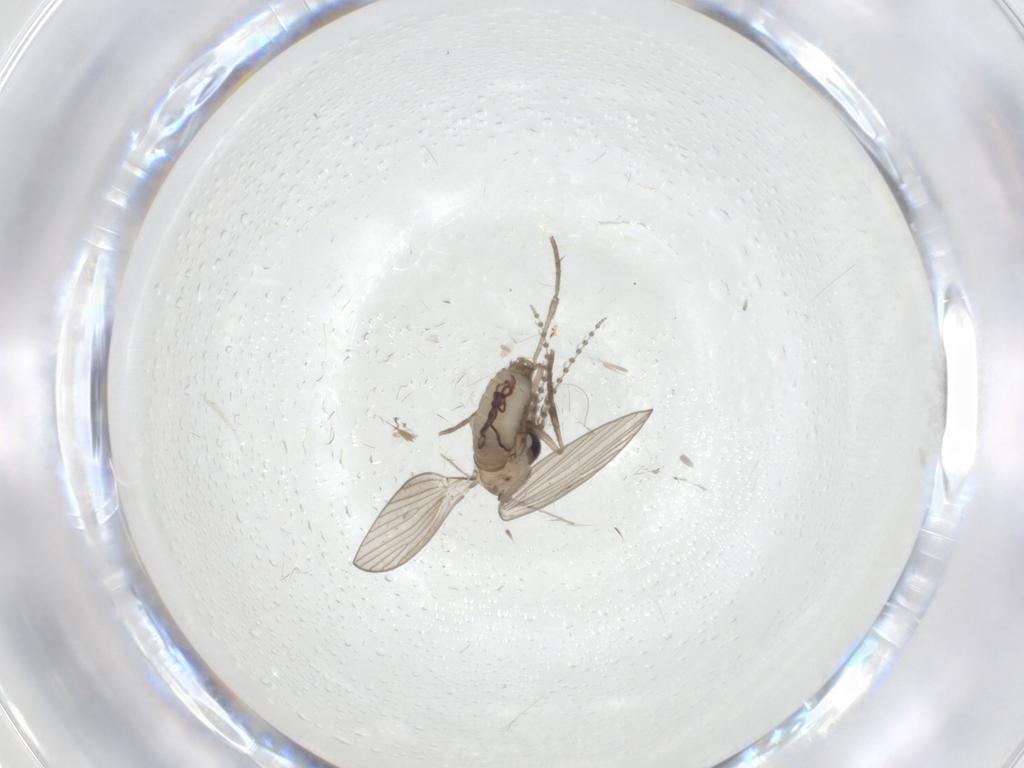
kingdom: Animalia
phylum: Arthropoda
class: Insecta
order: Diptera
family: Psychodidae
